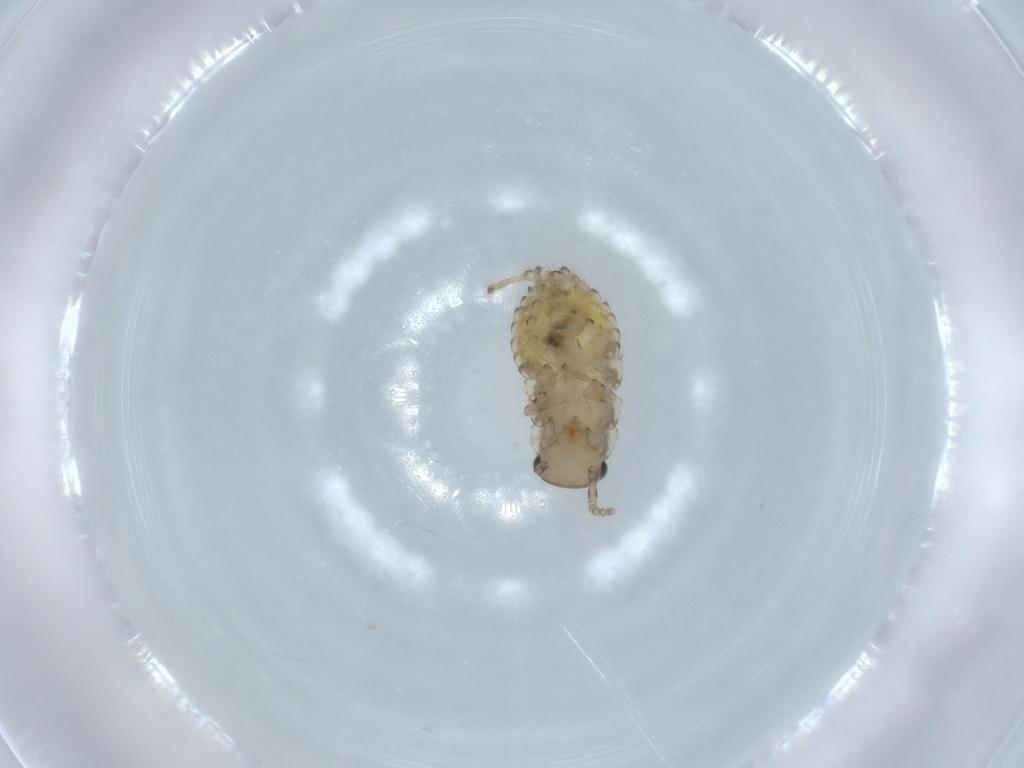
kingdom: Animalia
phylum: Arthropoda
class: Insecta
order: Blattodea
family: Ectobiidae
